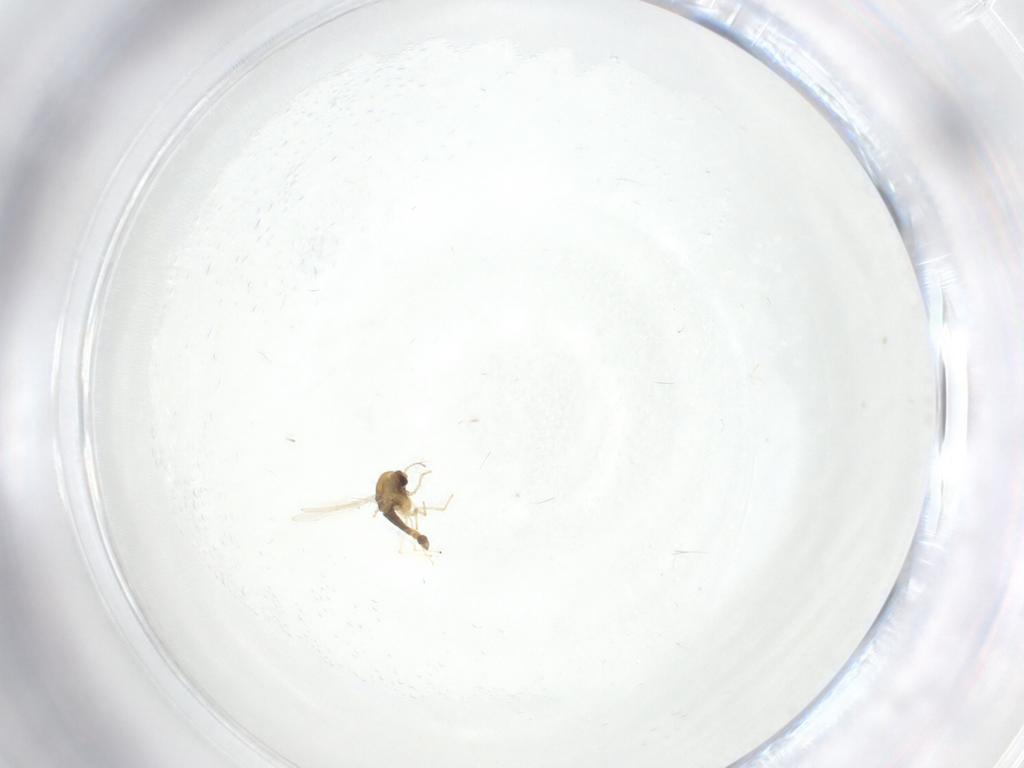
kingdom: Animalia
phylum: Arthropoda
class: Insecta
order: Diptera
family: Chironomidae
